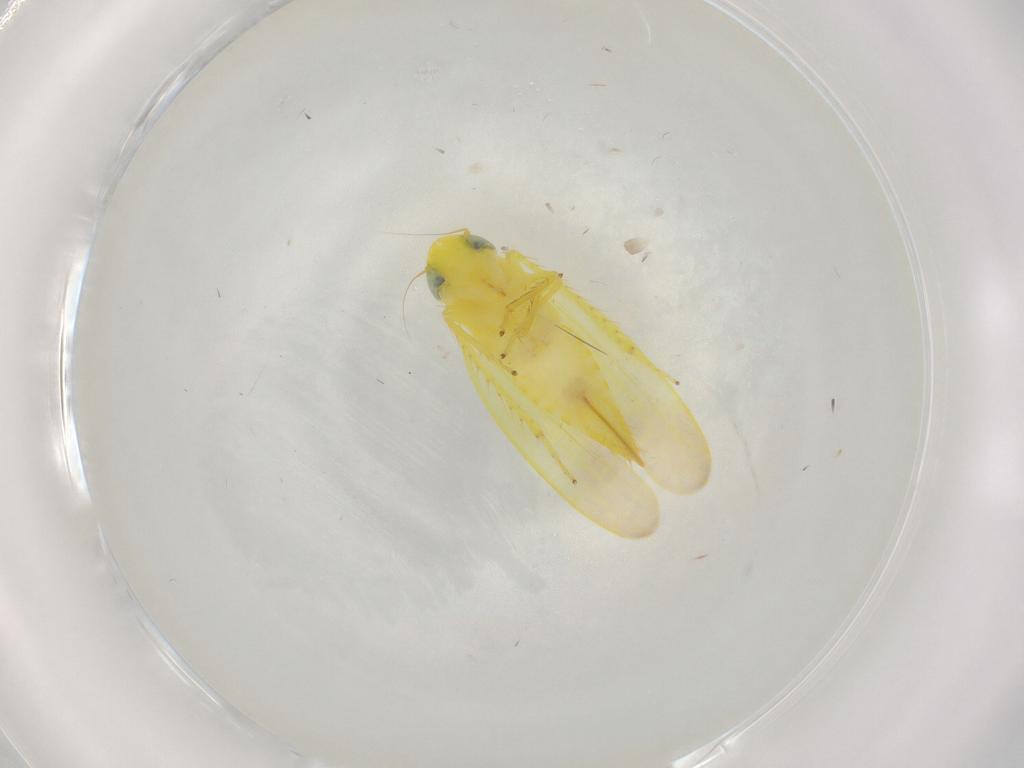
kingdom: Animalia
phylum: Arthropoda
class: Insecta
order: Hemiptera
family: Cicadellidae
